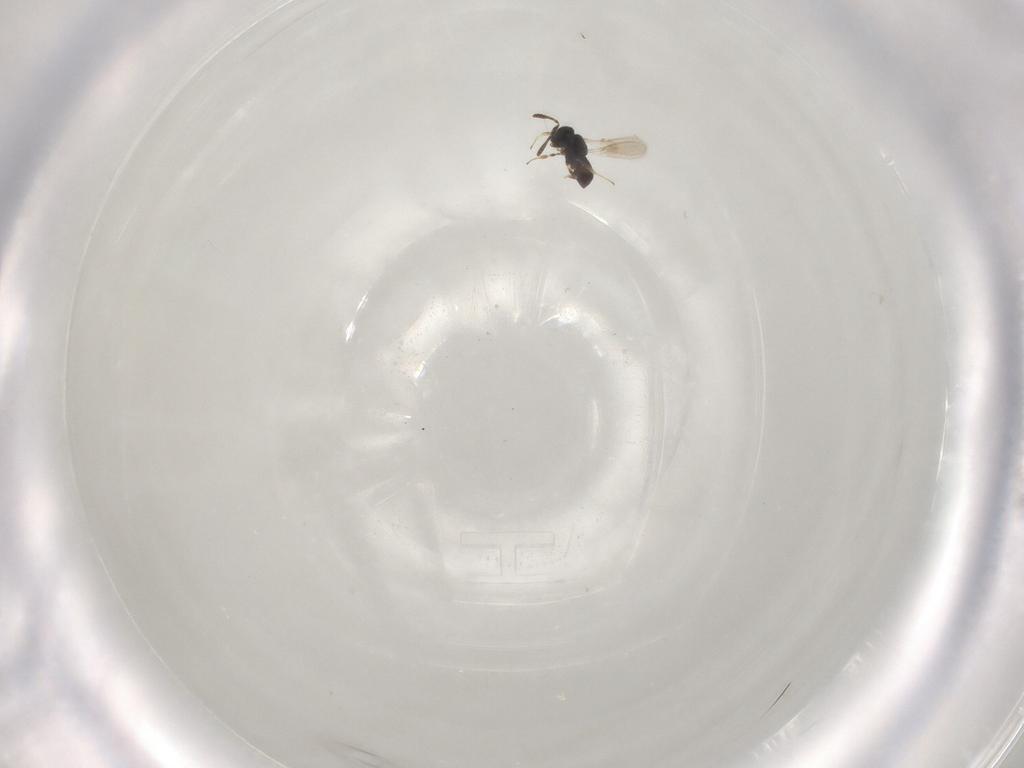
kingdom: Animalia
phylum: Arthropoda
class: Insecta
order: Hymenoptera
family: Scelionidae
